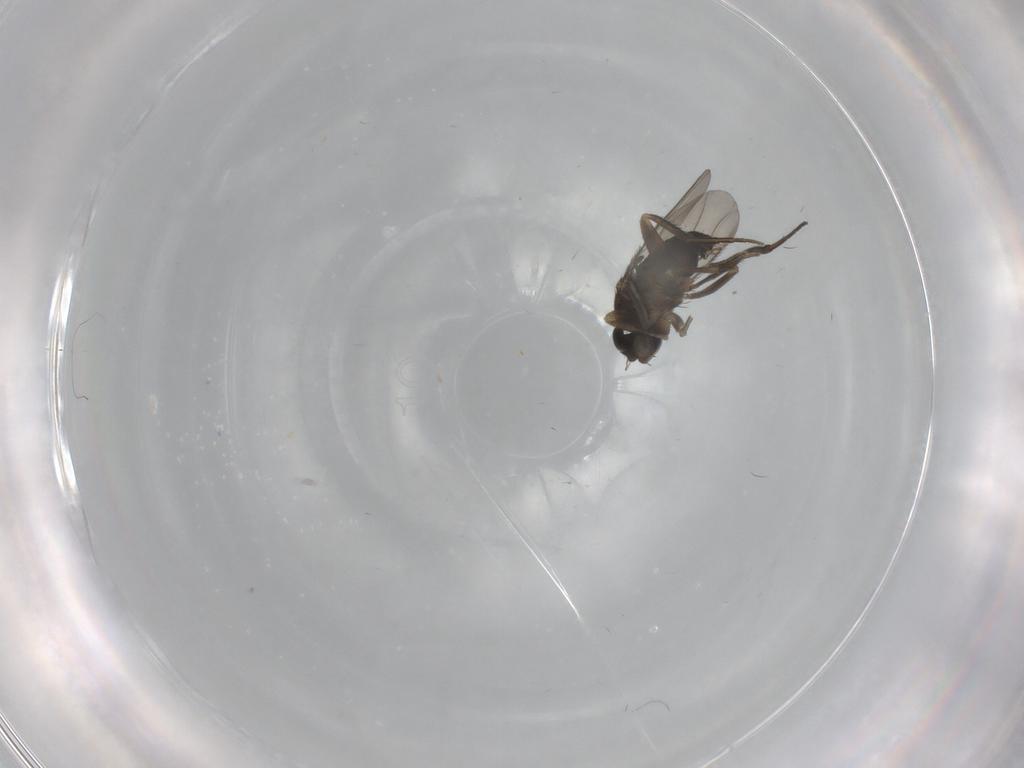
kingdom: Animalia
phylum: Arthropoda
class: Insecta
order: Diptera
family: Phoridae
